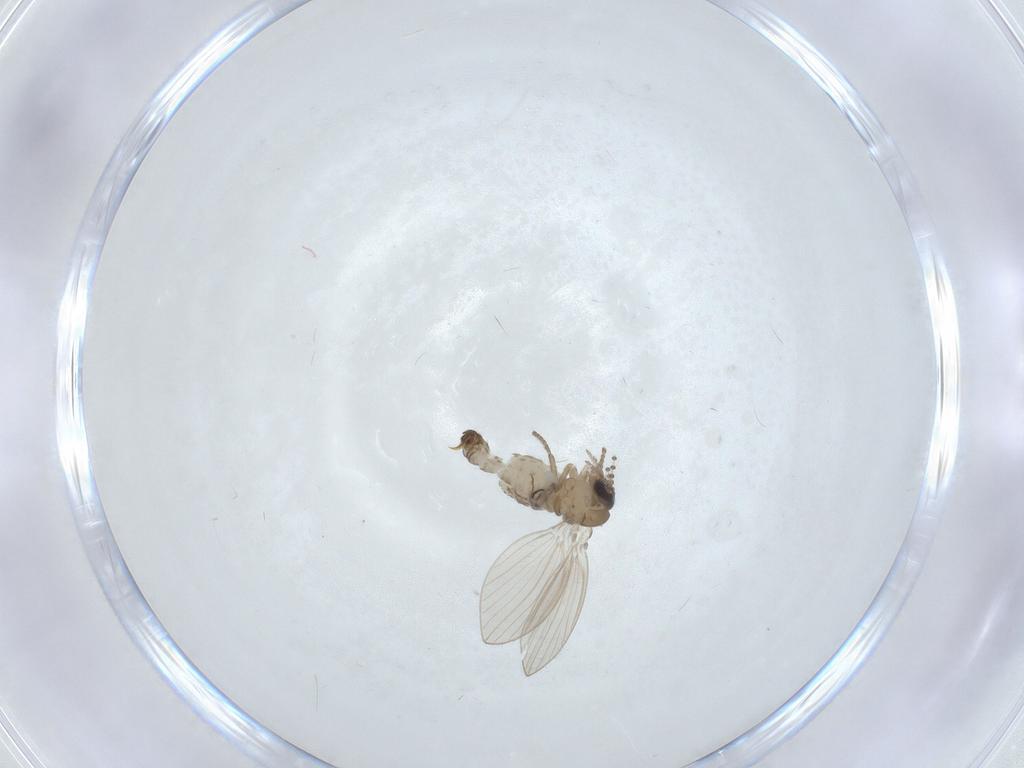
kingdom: Animalia
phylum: Arthropoda
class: Insecta
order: Diptera
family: Psychodidae
